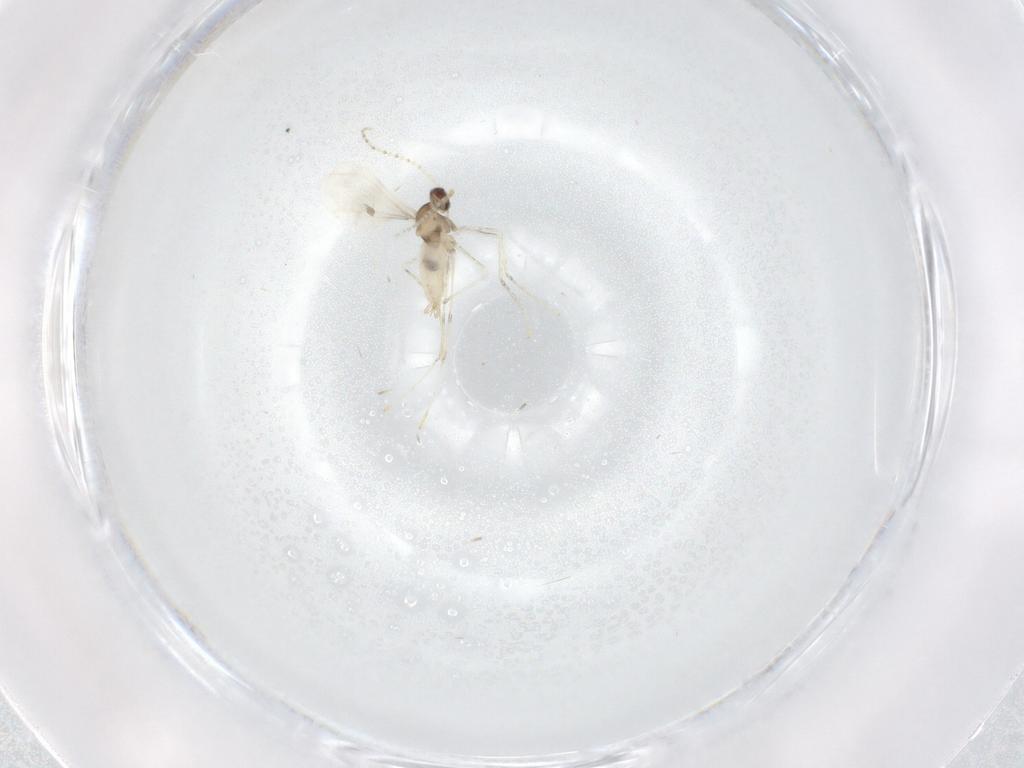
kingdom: Animalia
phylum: Arthropoda
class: Insecta
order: Diptera
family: Cecidomyiidae
